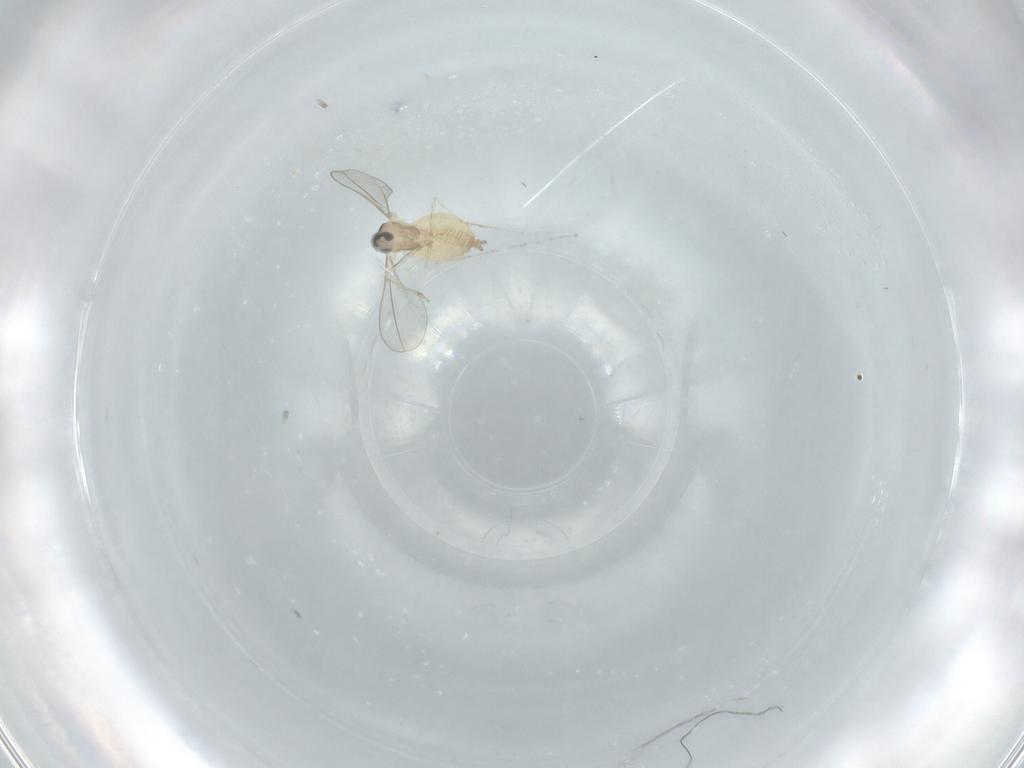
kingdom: Animalia
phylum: Arthropoda
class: Insecta
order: Diptera
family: Cecidomyiidae
